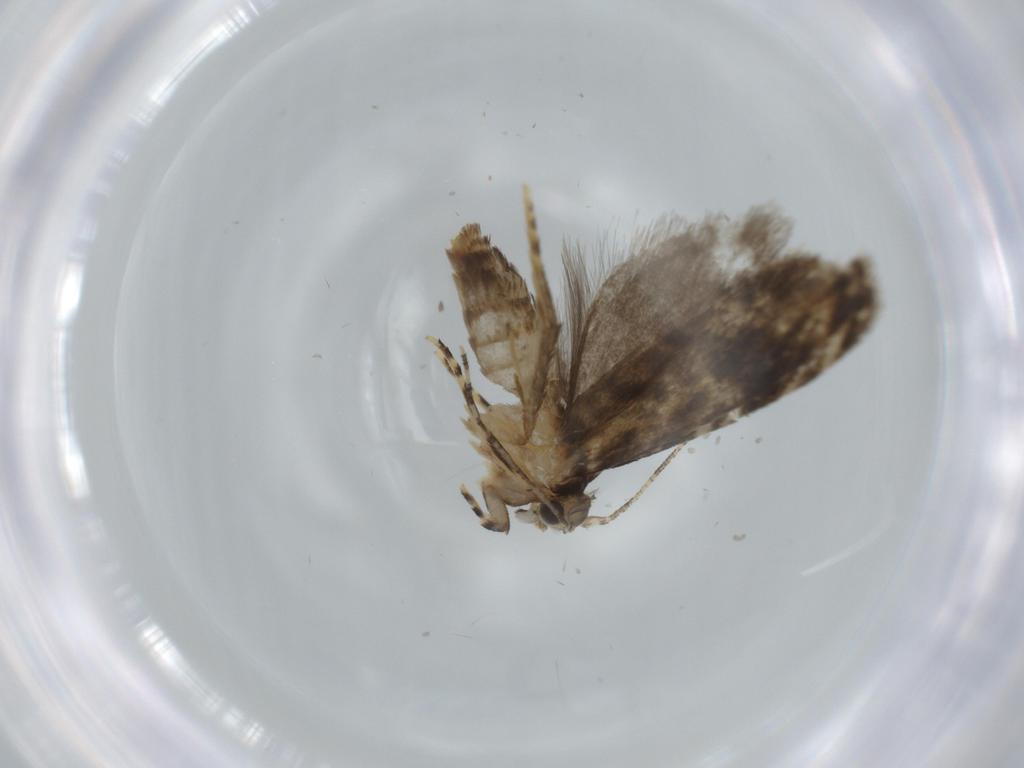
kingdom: Animalia
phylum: Arthropoda
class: Insecta
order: Lepidoptera
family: Tineidae
